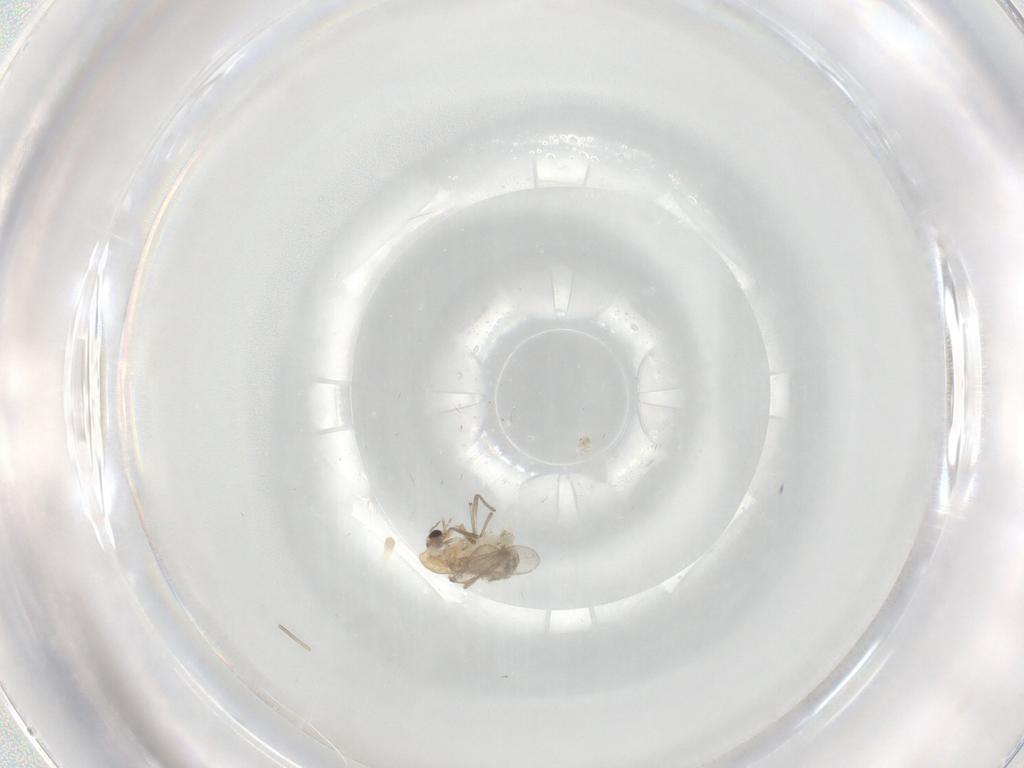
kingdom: Animalia
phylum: Arthropoda
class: Insecta
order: Diptera
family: Chironomidae
